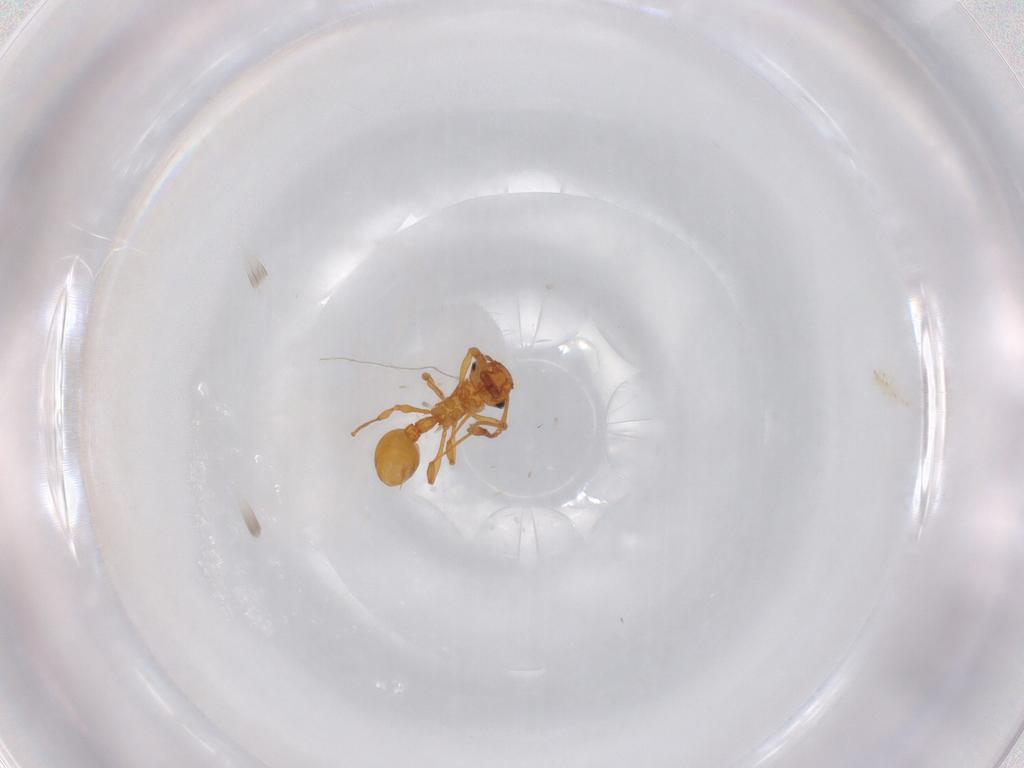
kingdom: Animalia
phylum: Arthropoda
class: Insecta
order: Hymenoptera
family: Formicidae
